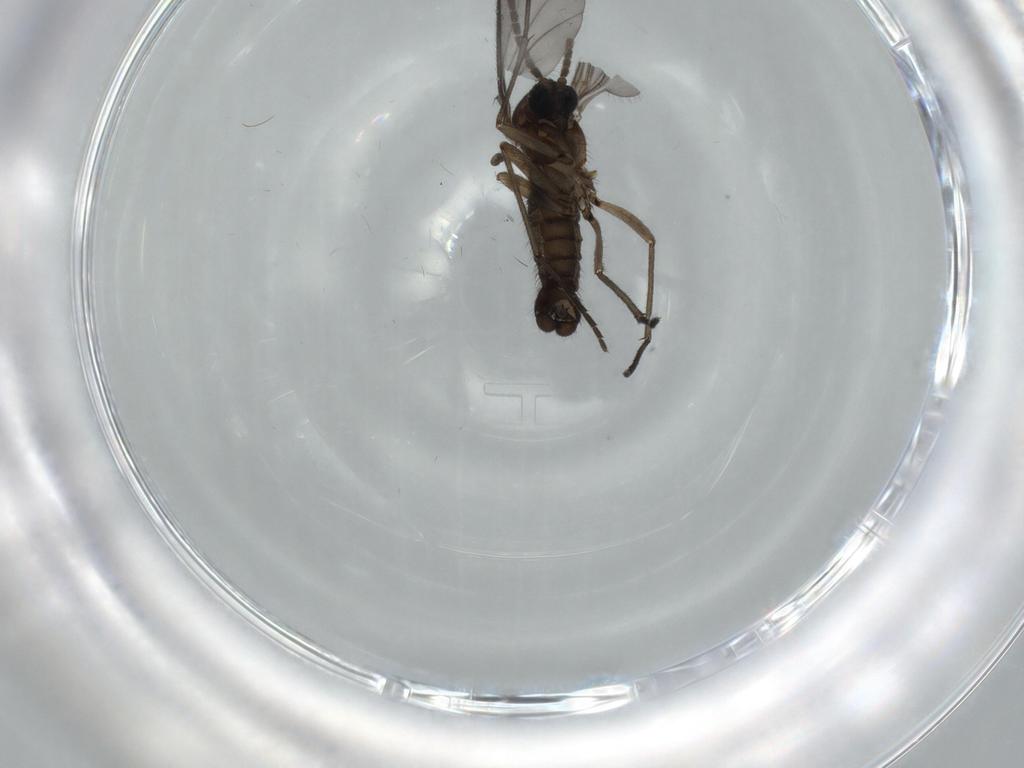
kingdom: Animalia
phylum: Arthropoda
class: Insecta
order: Diptera
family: Sciaridae
